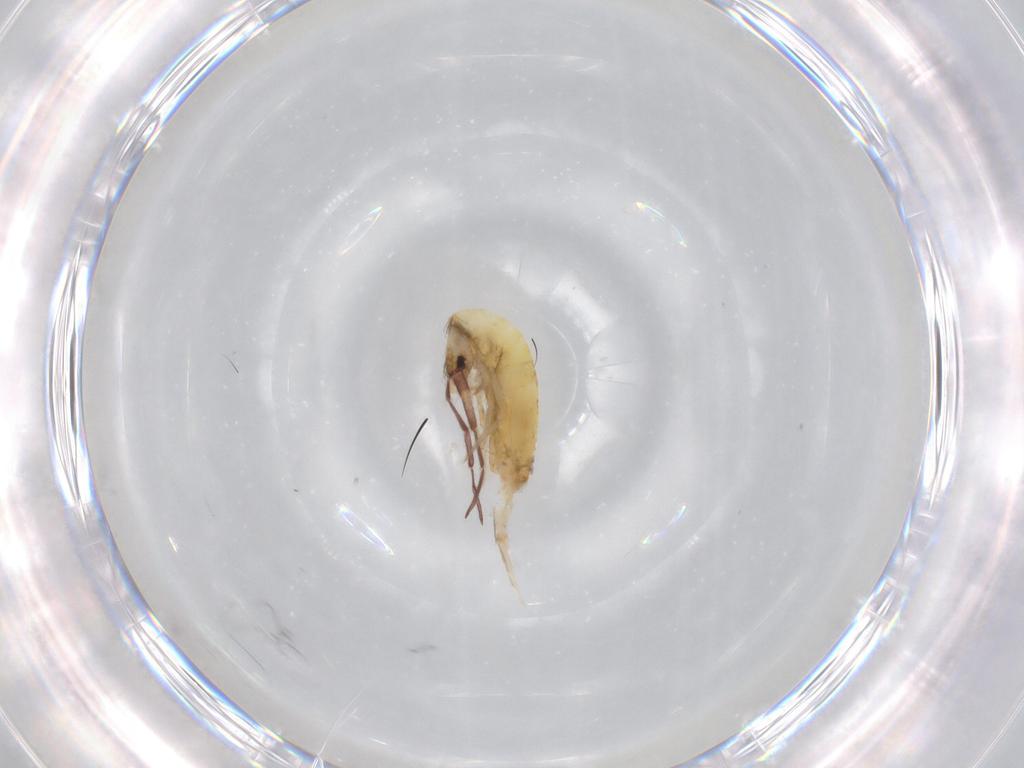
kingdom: Animalia
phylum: Arthropoda
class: Collembola
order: Entomobryomorpha
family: Entomobryidae
